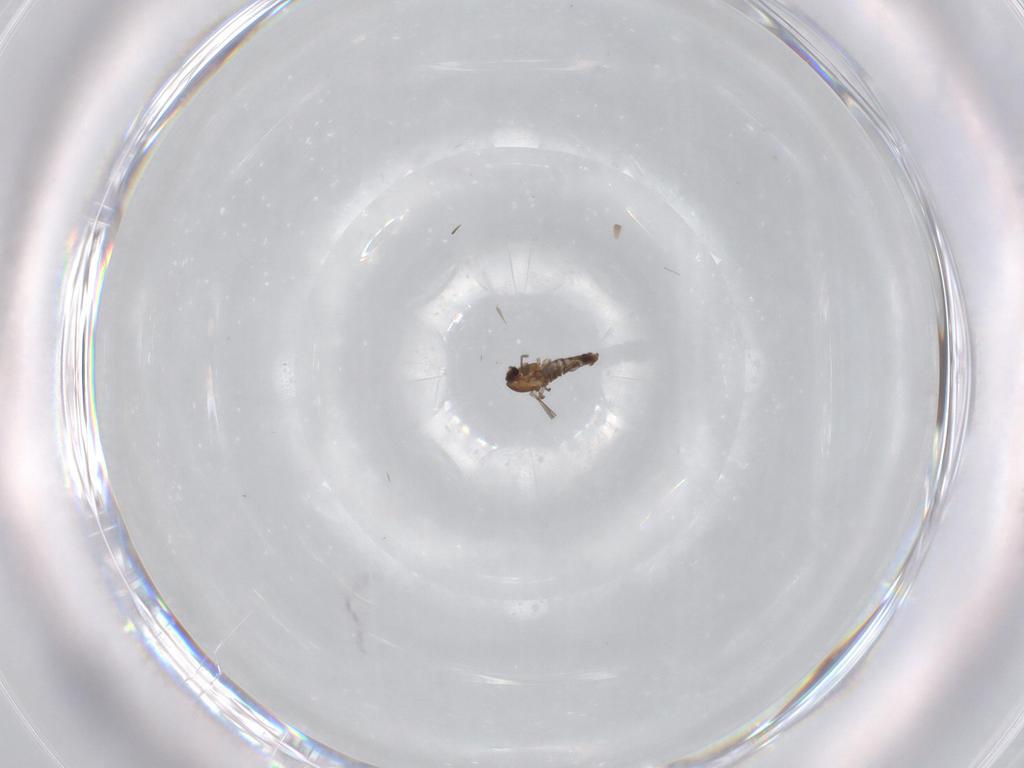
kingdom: Animalia
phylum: Arthropoda
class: Insecta
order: Diptera
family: Chironomidae
